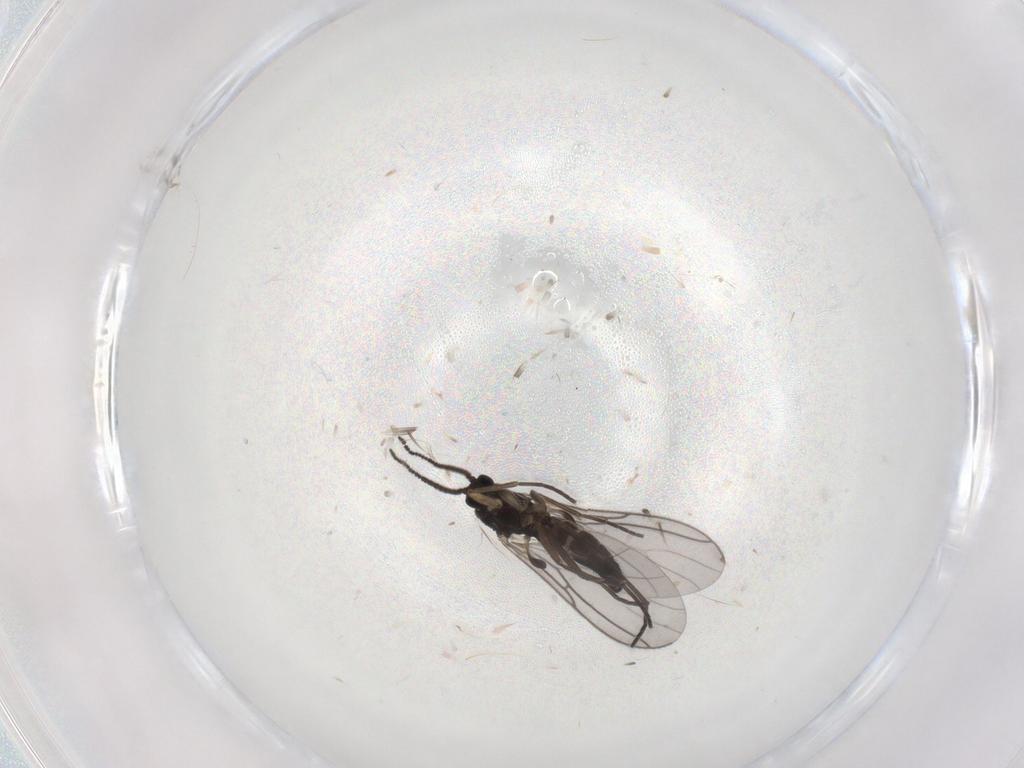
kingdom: Animalia
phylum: Arthropoda
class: Insecta
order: Diptera
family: Sciaridae
